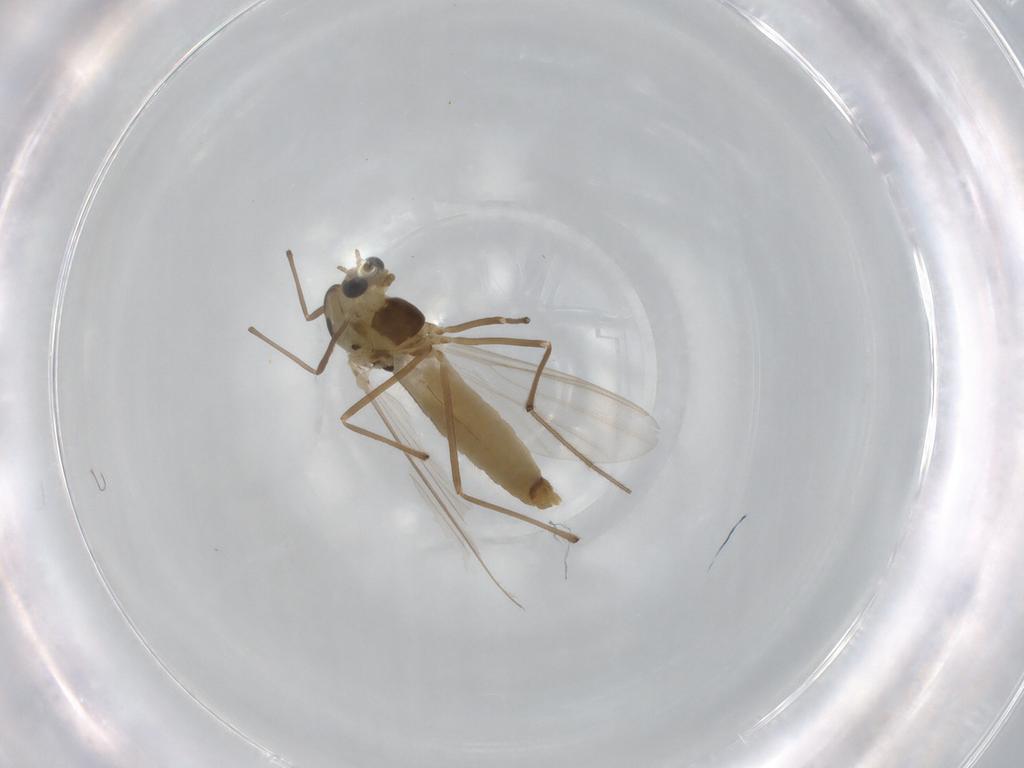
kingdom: Animalia
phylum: Arthropoda
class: Insecta
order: Diptera
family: Chironomidae
